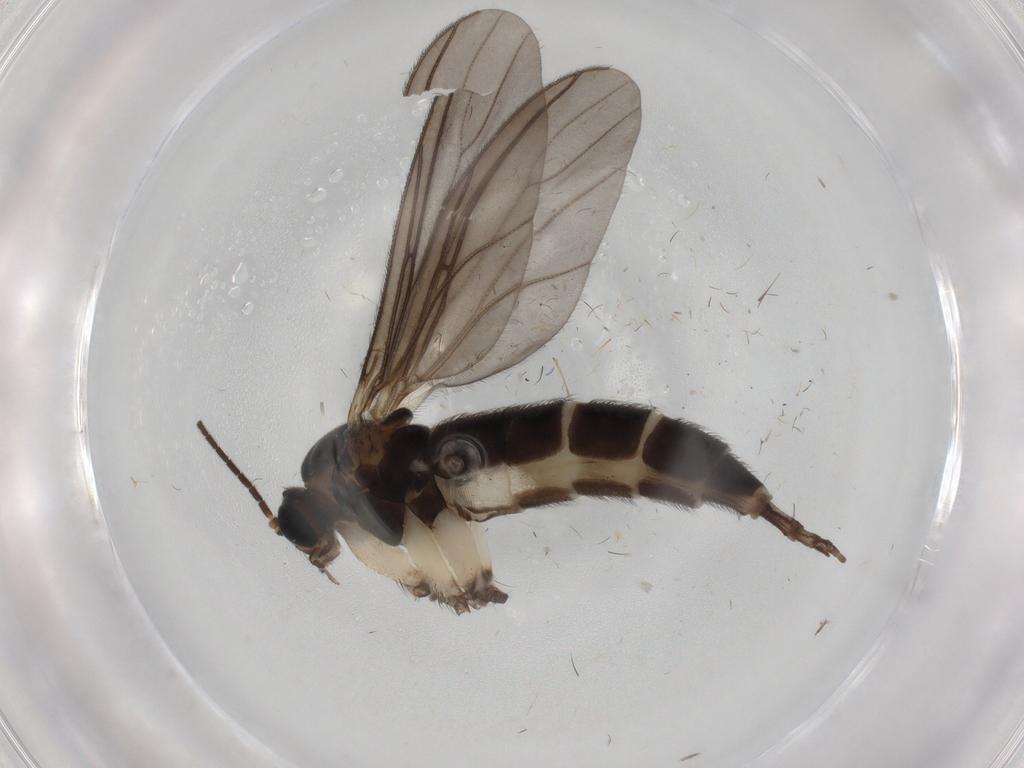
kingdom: Animalia
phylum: Arthropoda
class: Insecta
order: Diptera
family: Sciaridae
